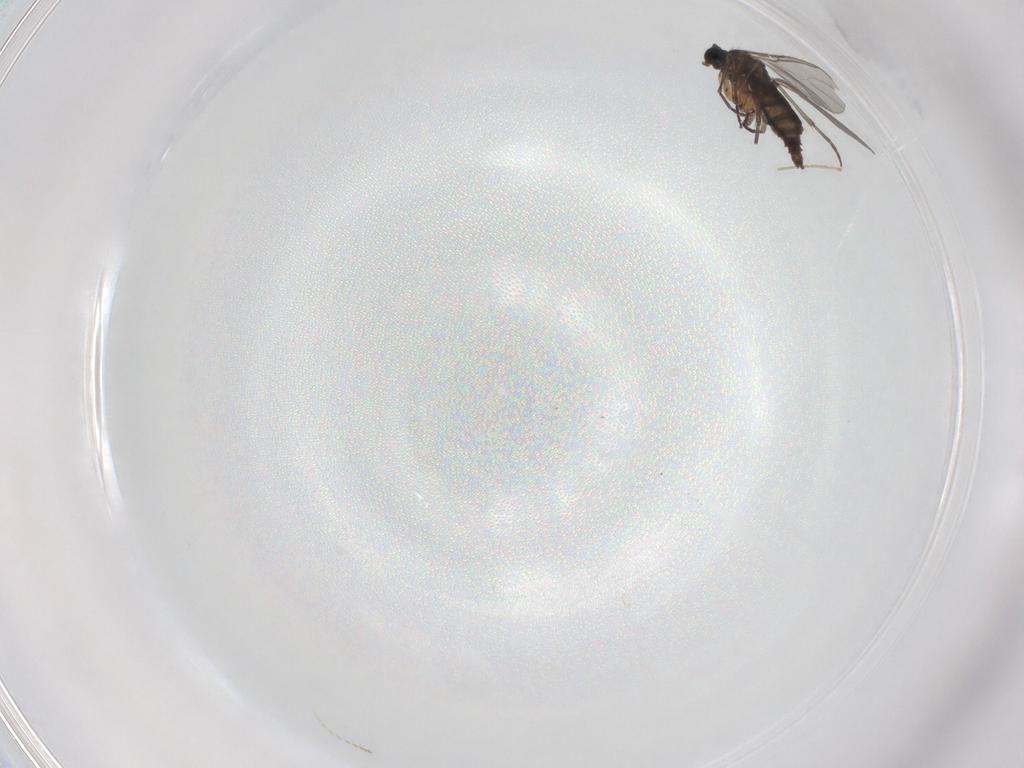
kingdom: Animalia
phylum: Arthropoda
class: Insecta
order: Diptera
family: Sciaridae
